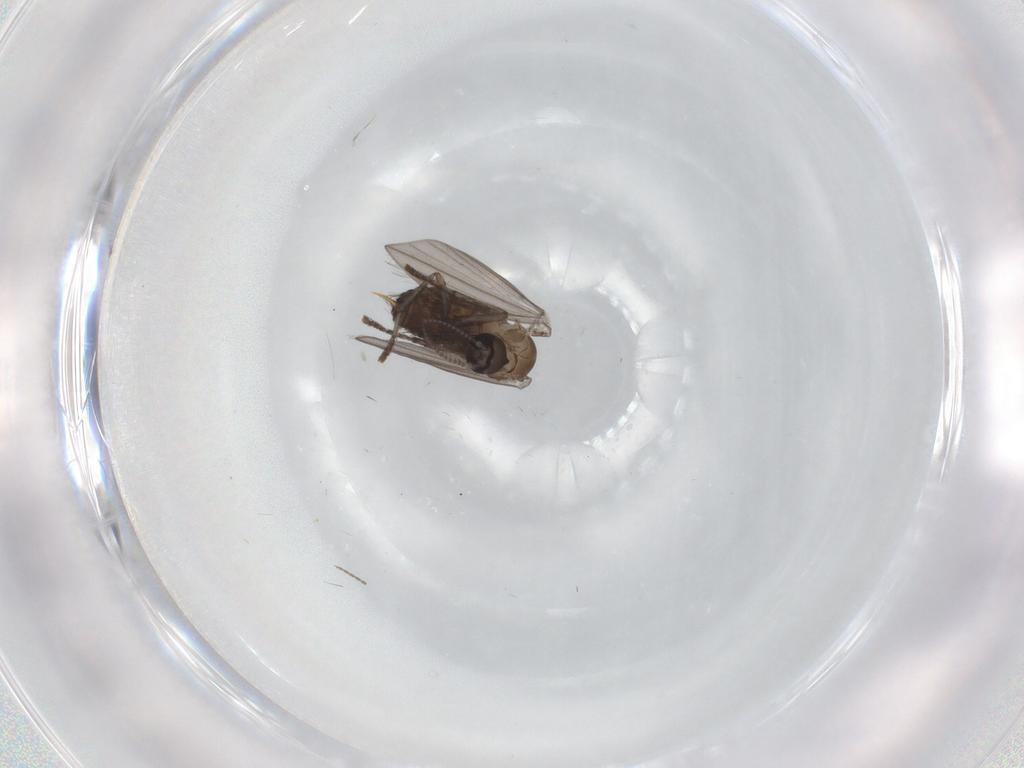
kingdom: Animalia
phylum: Arthropoda
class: Insecta
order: Diptera
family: Psychodidae
